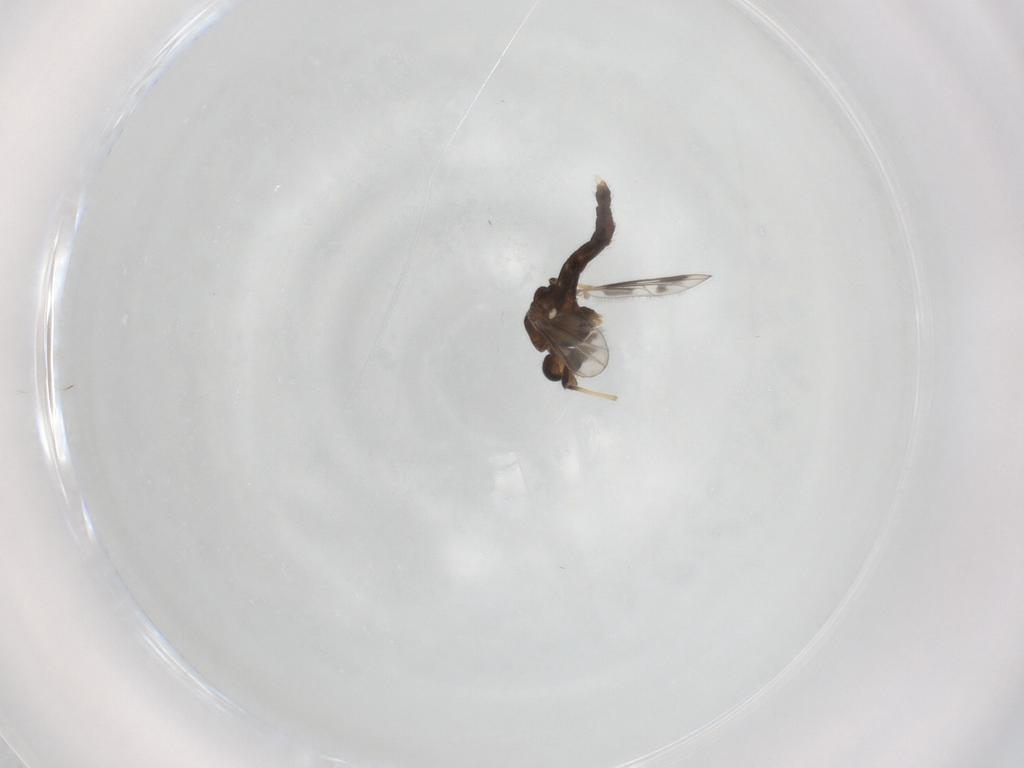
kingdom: Animalia
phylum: Arthropoda
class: Insecta
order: Diptera
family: Chironomidae
